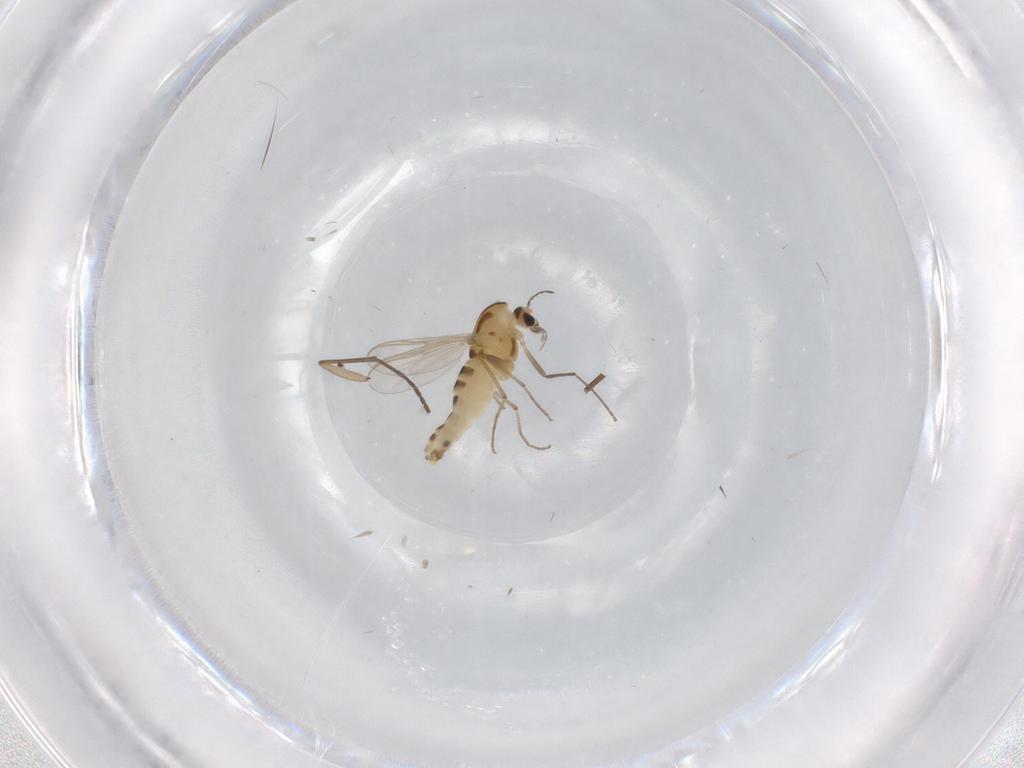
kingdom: Animalia
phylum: Arthropoda
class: Insecta
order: Diptera
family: Chironomidae
